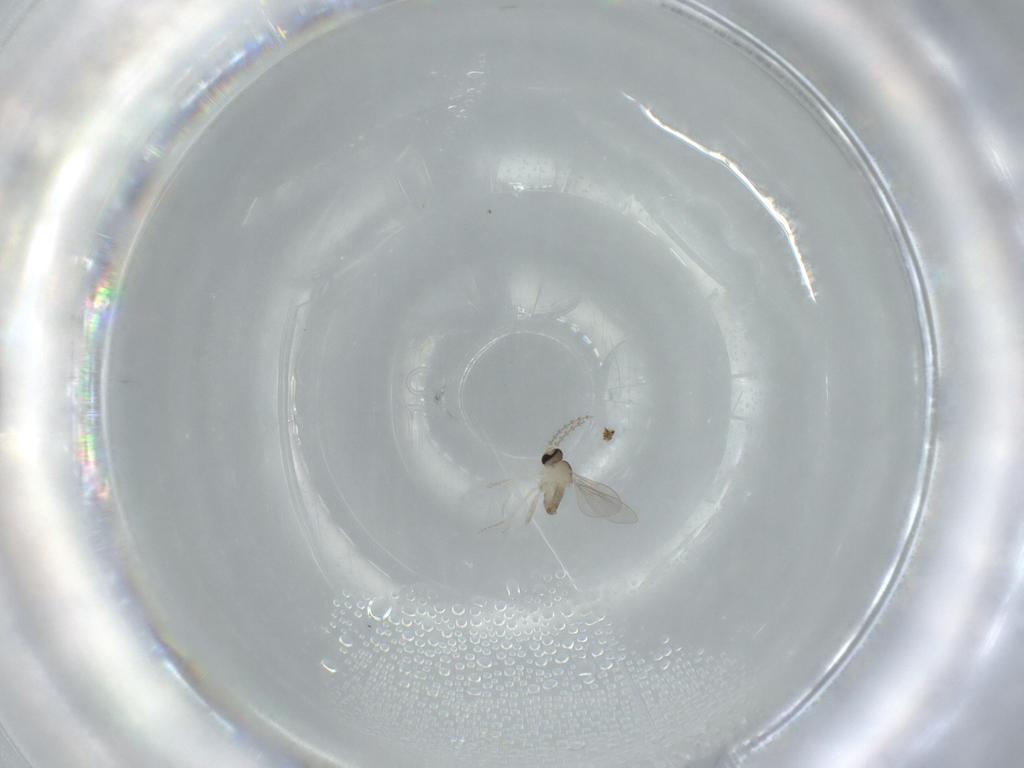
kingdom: Animalia
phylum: Arthropoda
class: Insecta
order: Diptera
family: Cecidomyiidae
